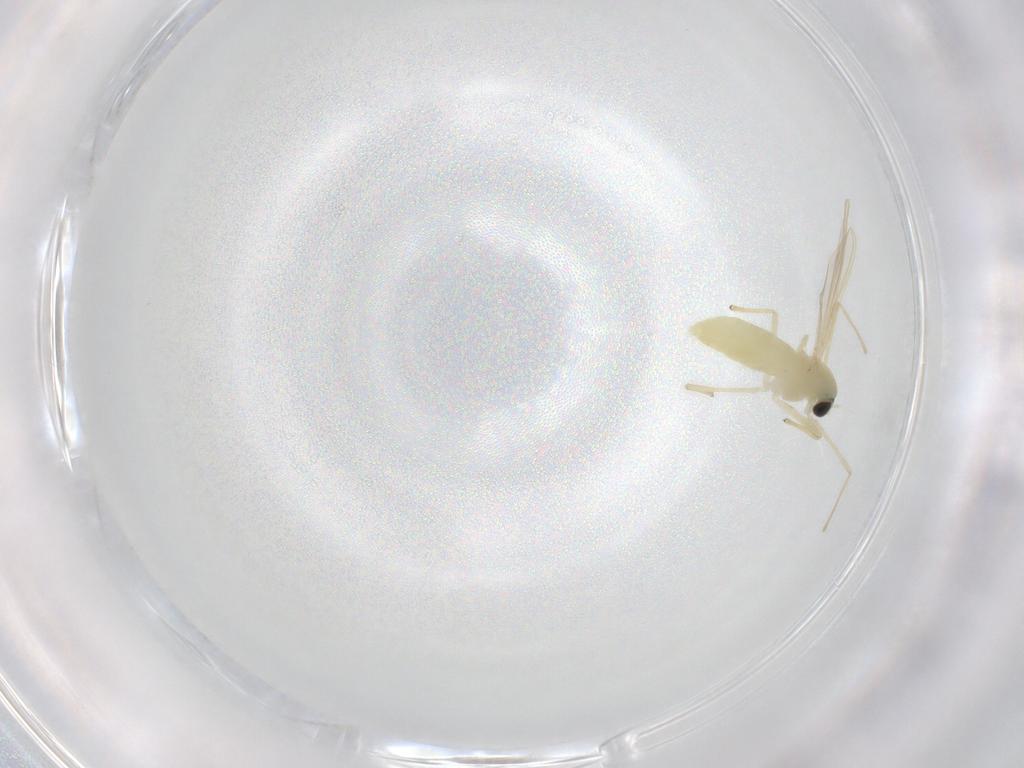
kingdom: Animalia
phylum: Arthropoda
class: Insecta
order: Diptera
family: Chironomidae
